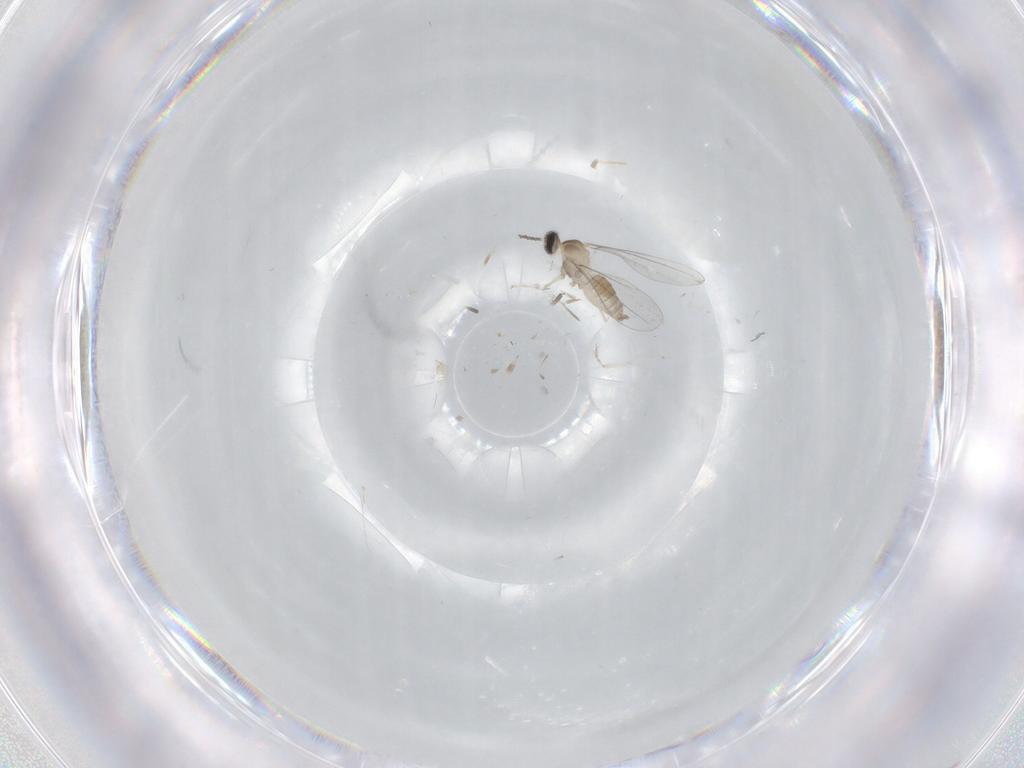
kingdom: Animalia
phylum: Arthropoda
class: Insecta
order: Diptera
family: Cecidomyiidae
